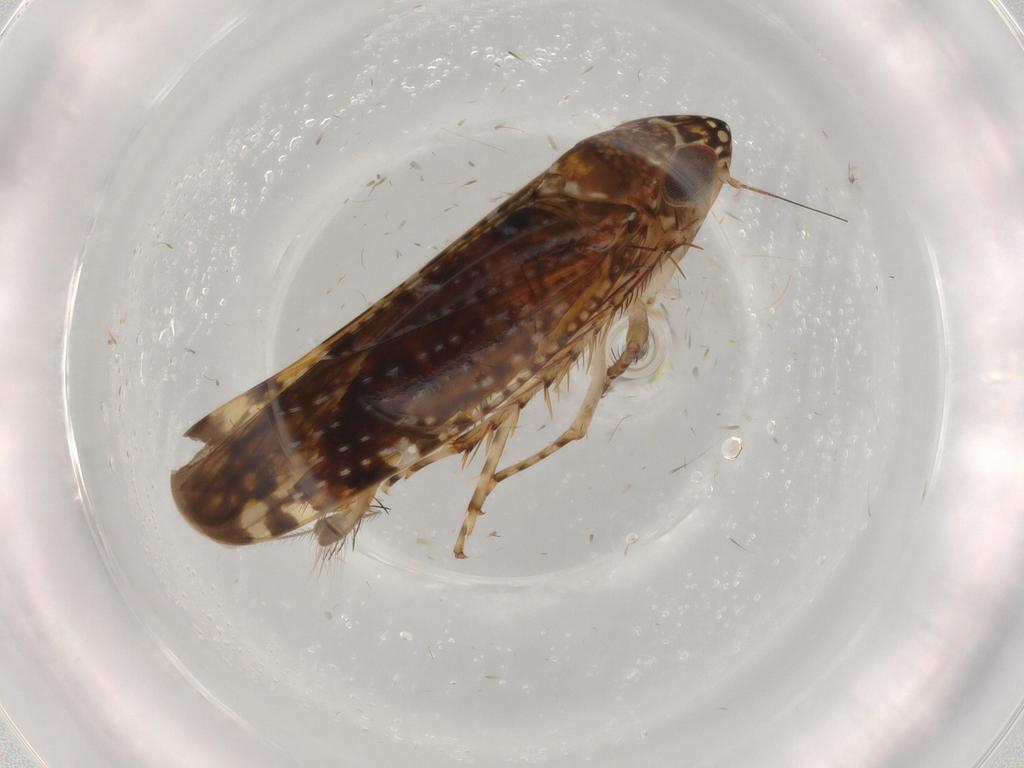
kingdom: Animalia
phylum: Arthropoda
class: Insecta
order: Hemiptera
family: Cicadellidae
